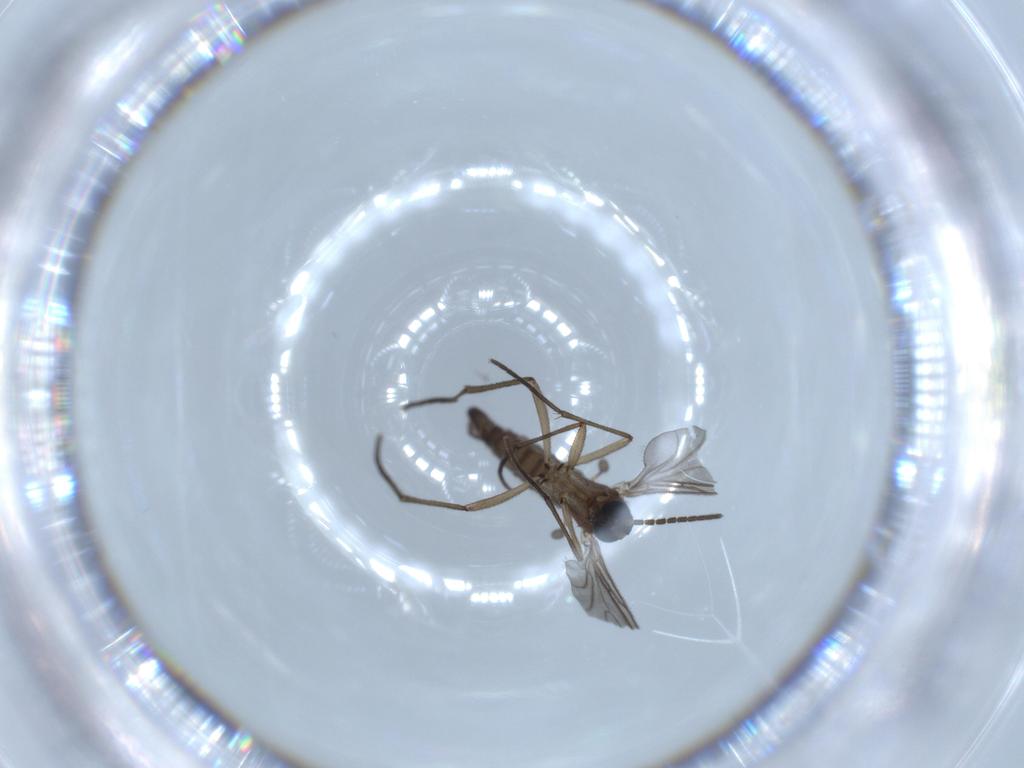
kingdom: Animalia
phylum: Arthropoda
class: Insecta
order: Diptera
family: Sciaridae
